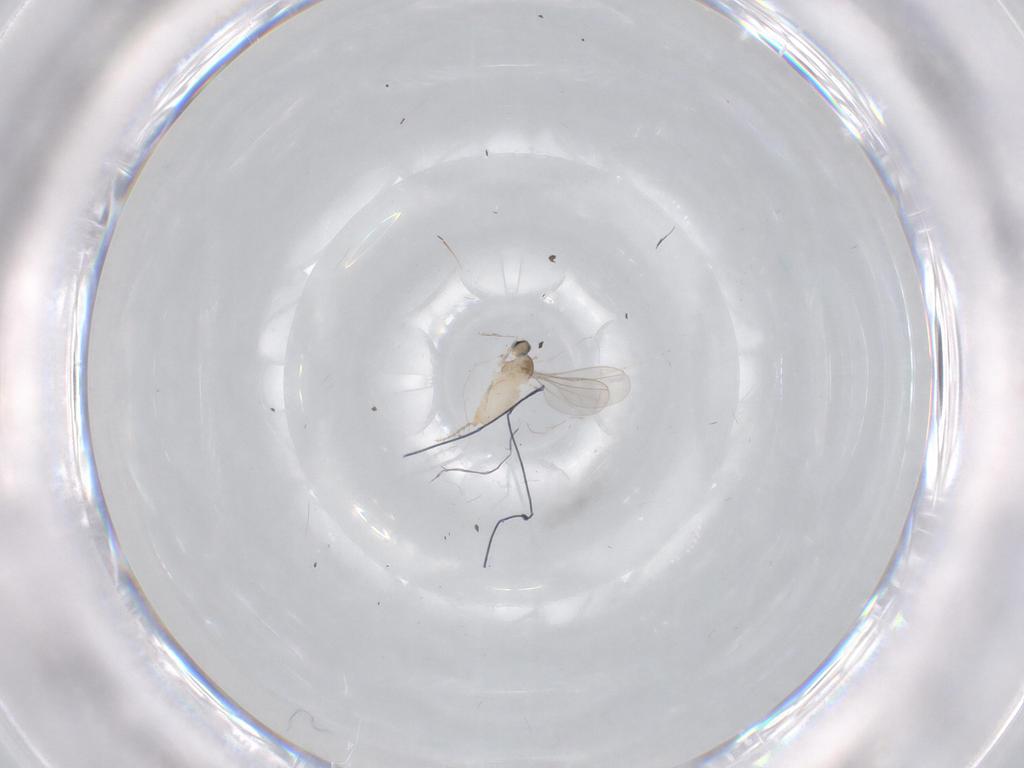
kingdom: Animalia
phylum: Arthropoda
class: Insecta
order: Diptera
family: Cecidomyiidae
